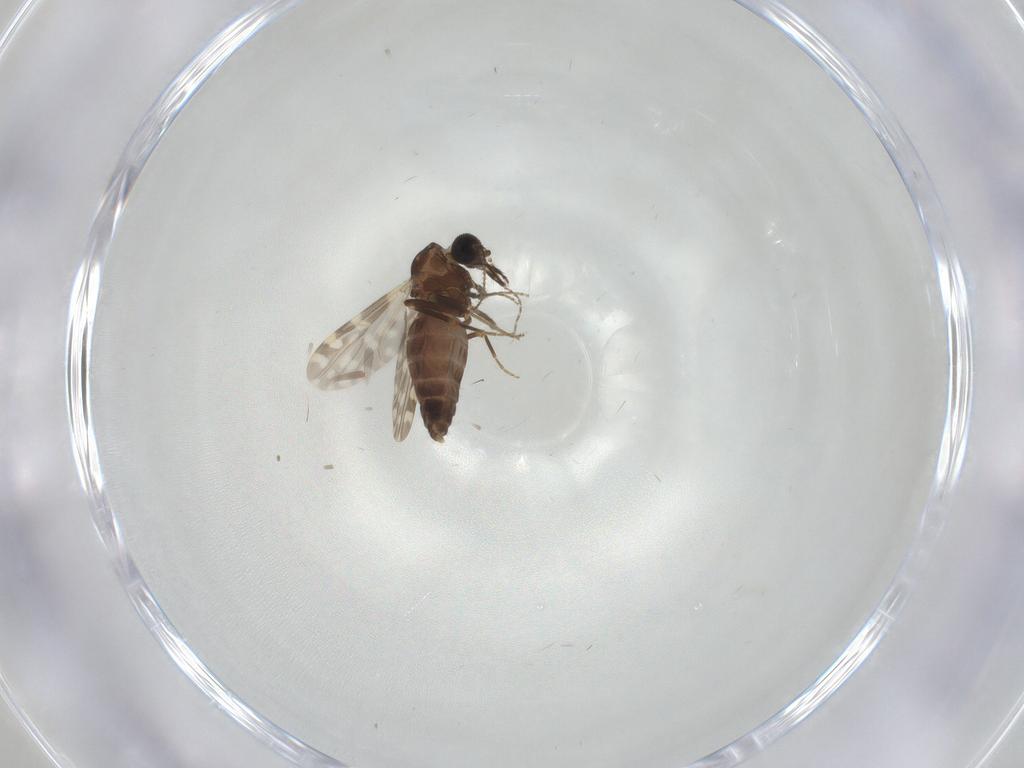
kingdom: Animalia
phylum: Arthropoda
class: Insecta
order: Diptera
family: Ceratopogonidae
